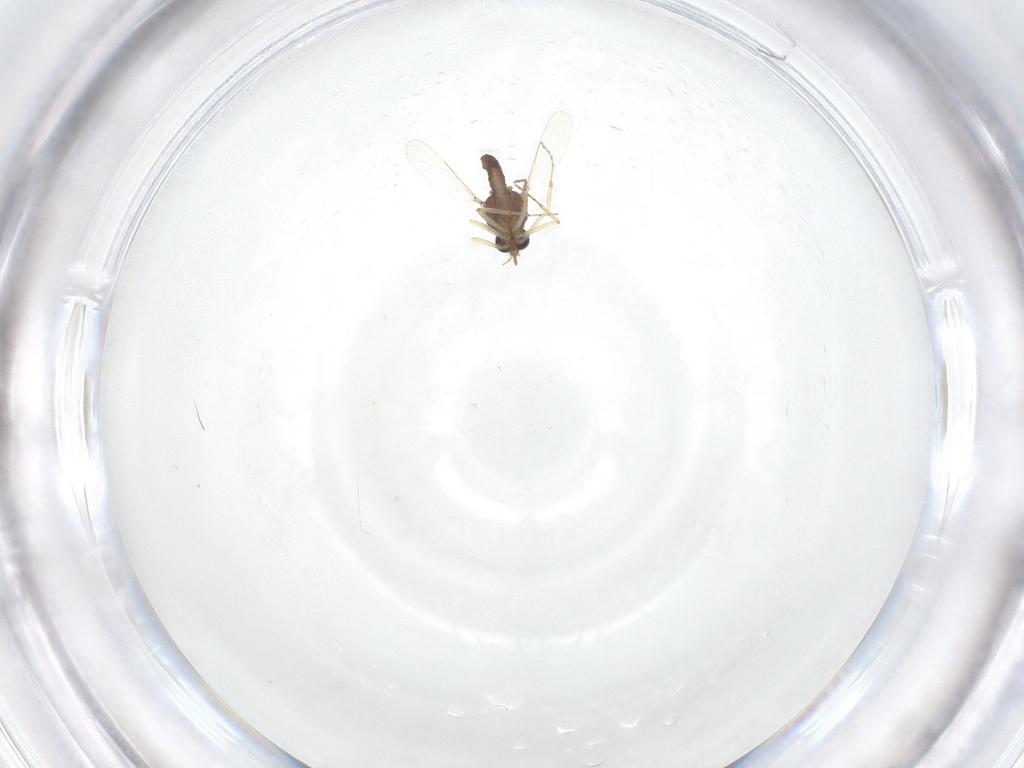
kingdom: Animalia
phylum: Arthropoda
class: Insecta
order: Diptera
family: Ceratopogonidae
